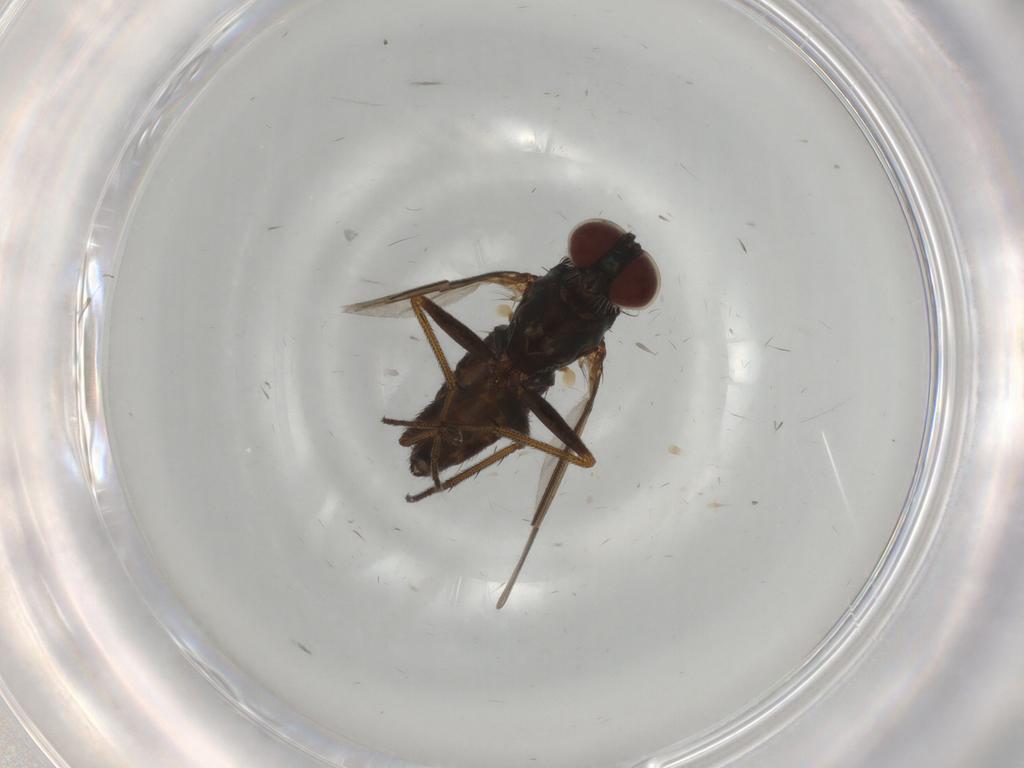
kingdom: Animalia
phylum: Arthropoda
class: Insecta
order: Diptera
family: Dolichopodidae
